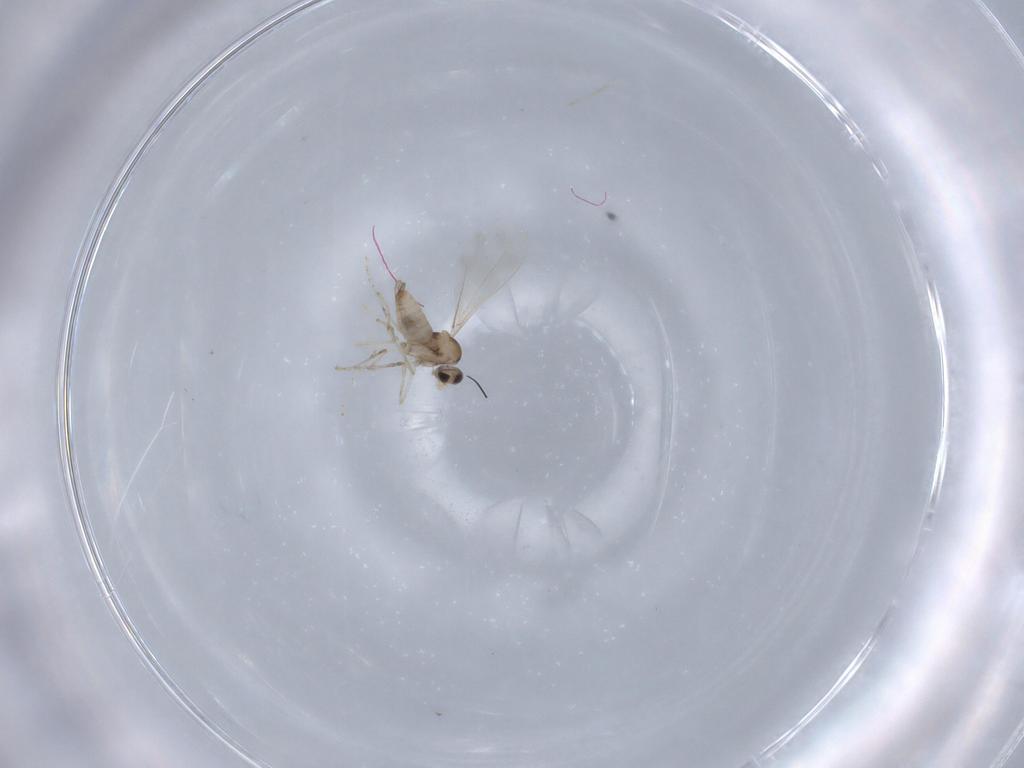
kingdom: Animalia
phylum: Arthropoda
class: Insecta
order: Diptera
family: Cecidomyiidae
